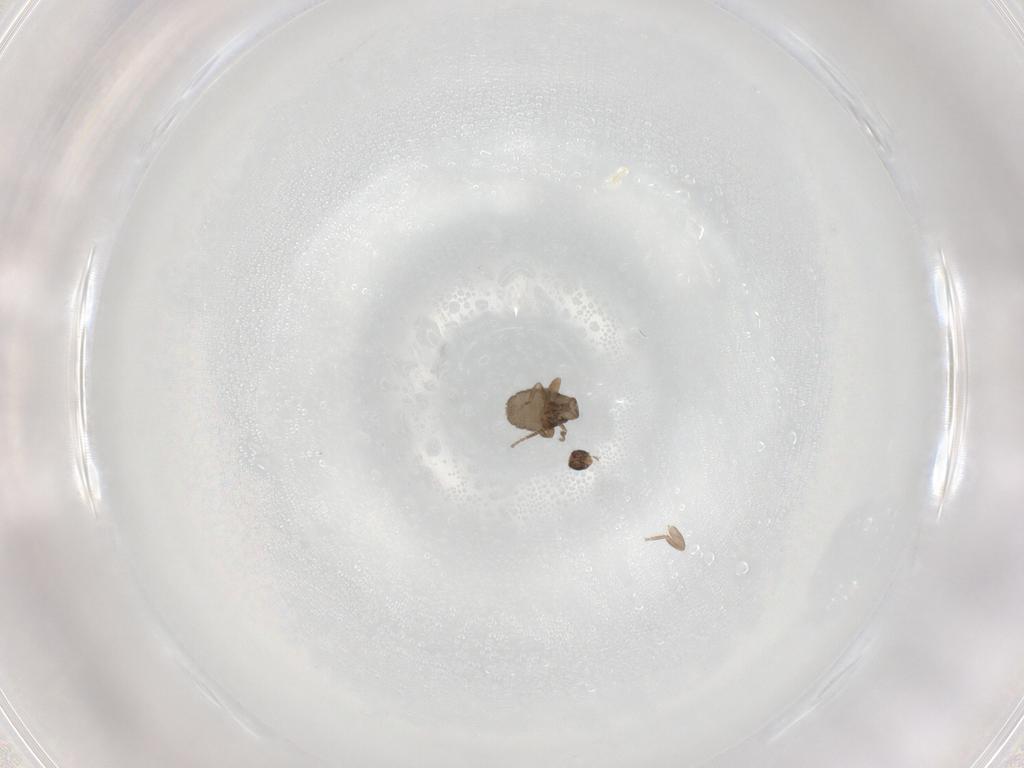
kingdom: Animalia
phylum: Arthropoda
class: Insecta
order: Diptera
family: Phoridae
